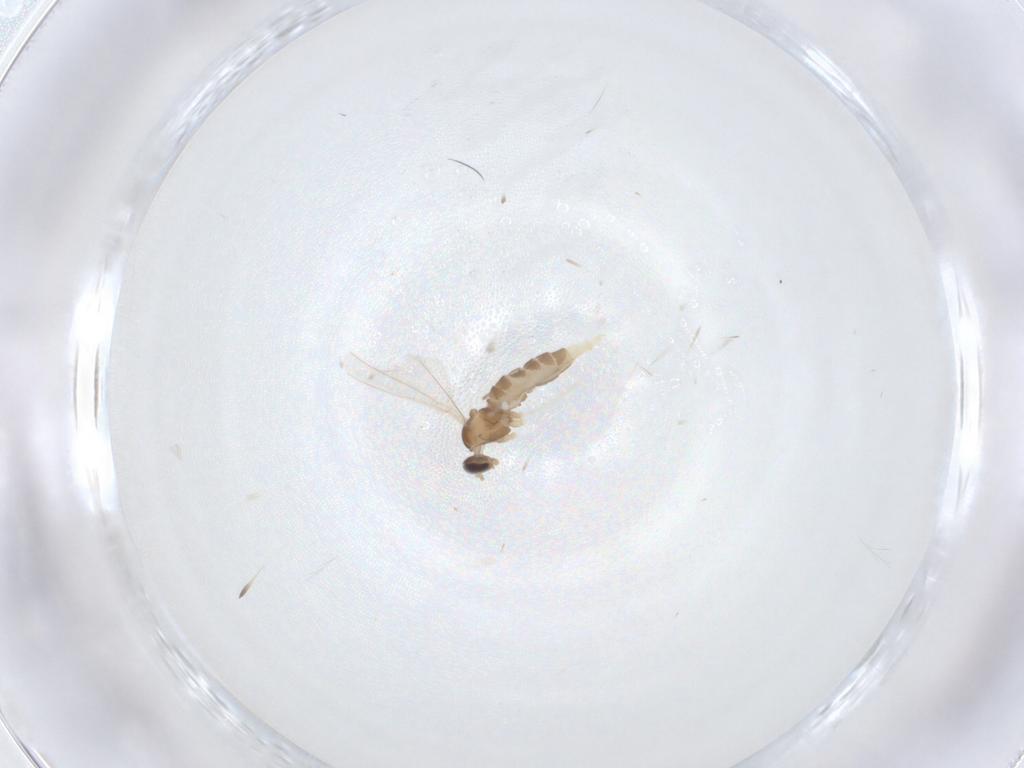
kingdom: Animalia
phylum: Arthropoda
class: Insecta
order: Diptera
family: Cecidomyiidae
